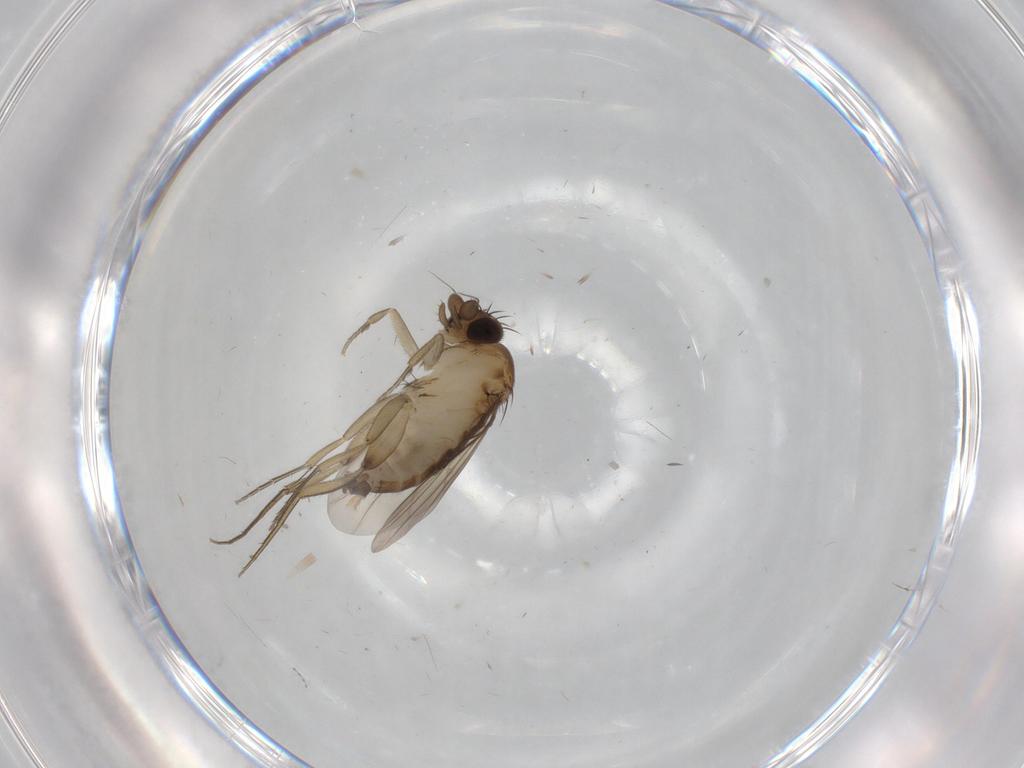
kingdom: Animalia
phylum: Arthropoda
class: Insecta
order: Diptera
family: Phoridae
